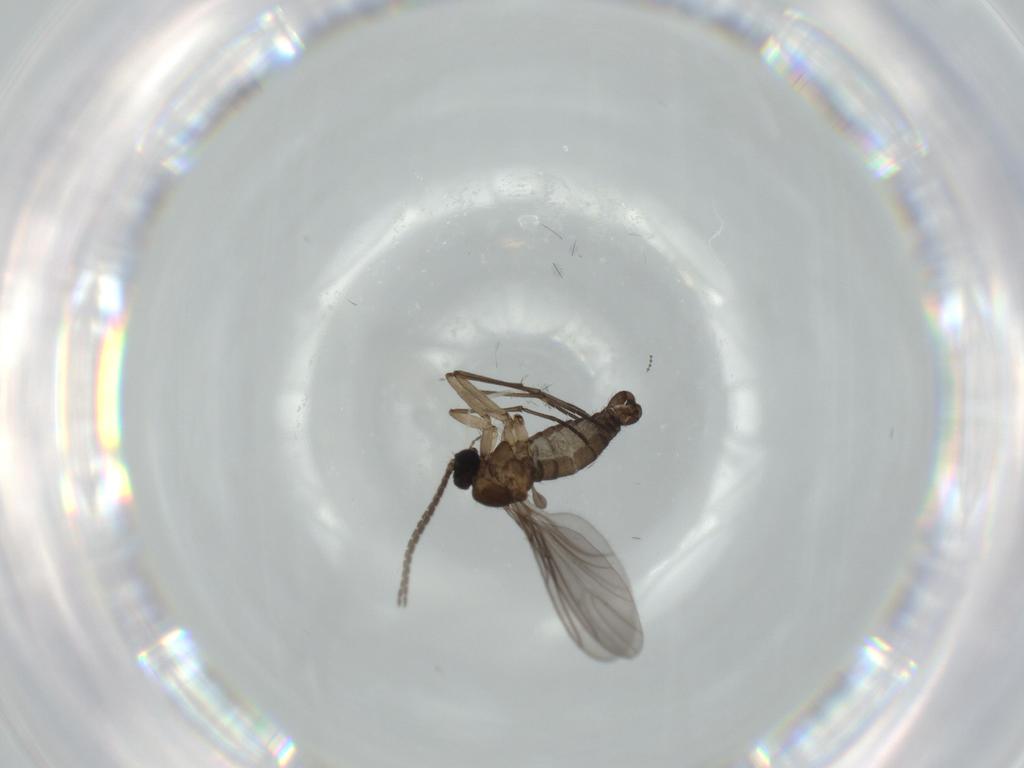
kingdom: Animalia
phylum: Arthropoda
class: Insecta
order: Diptera
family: Sciaridae
